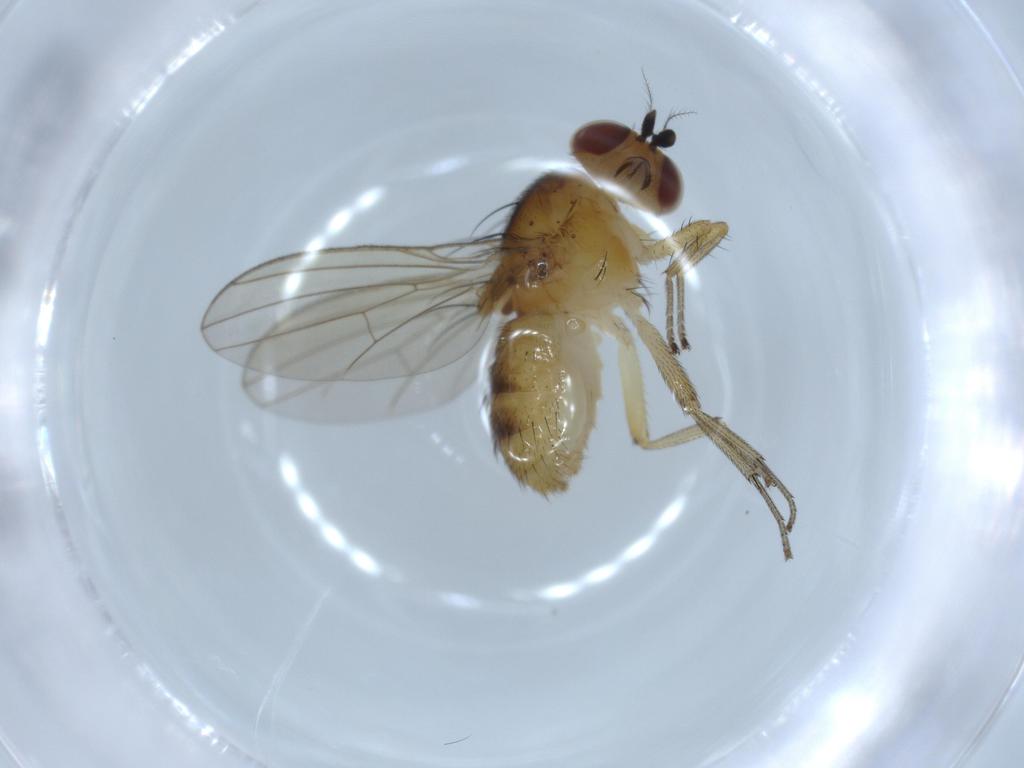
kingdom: Animalia
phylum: Arthropoda
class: Insecta
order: Diptera
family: Lauxaniidae
